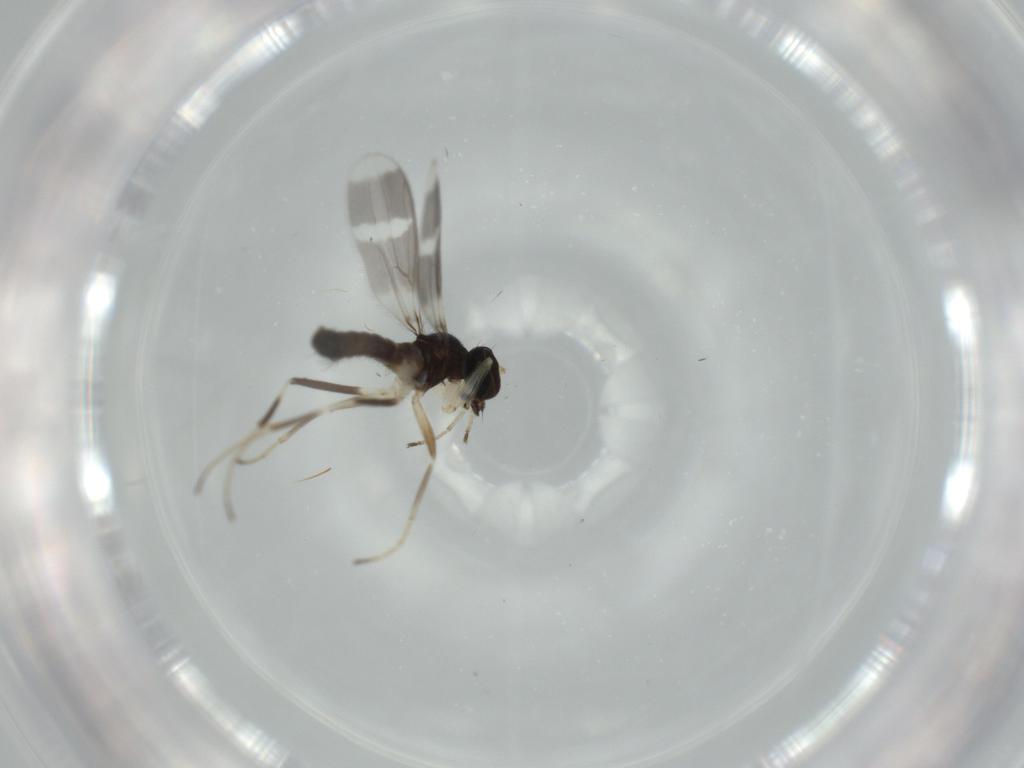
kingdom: Animalia
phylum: Arthropoda
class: Insecta
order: Diptera
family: Hybotidae
